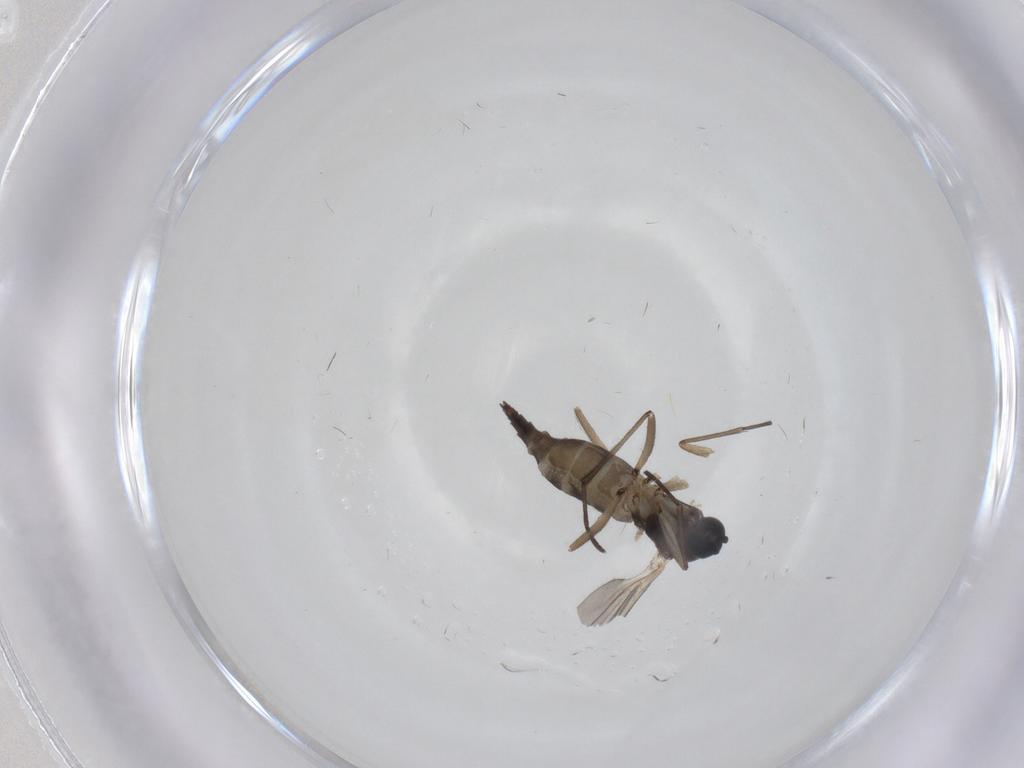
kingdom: Animalia
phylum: Arthropoda
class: Insecta
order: Diptera
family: Sciaridae
